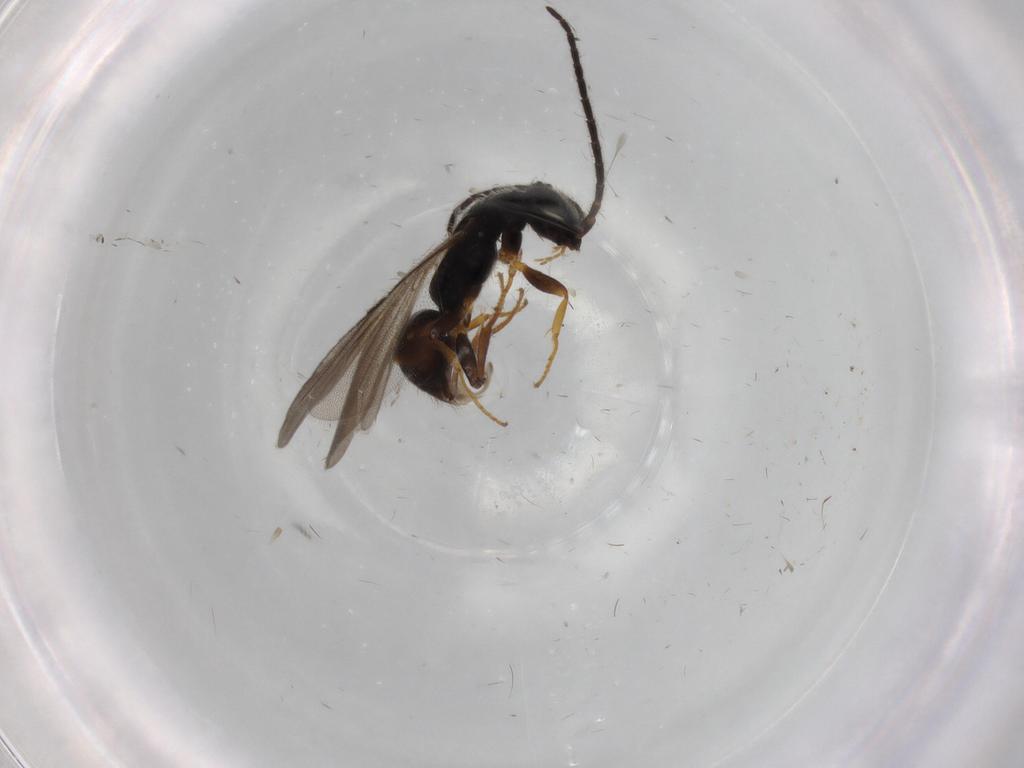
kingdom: Animalia
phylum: Arthropoda
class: Insecta
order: Hymenoptera
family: Bethylidae
